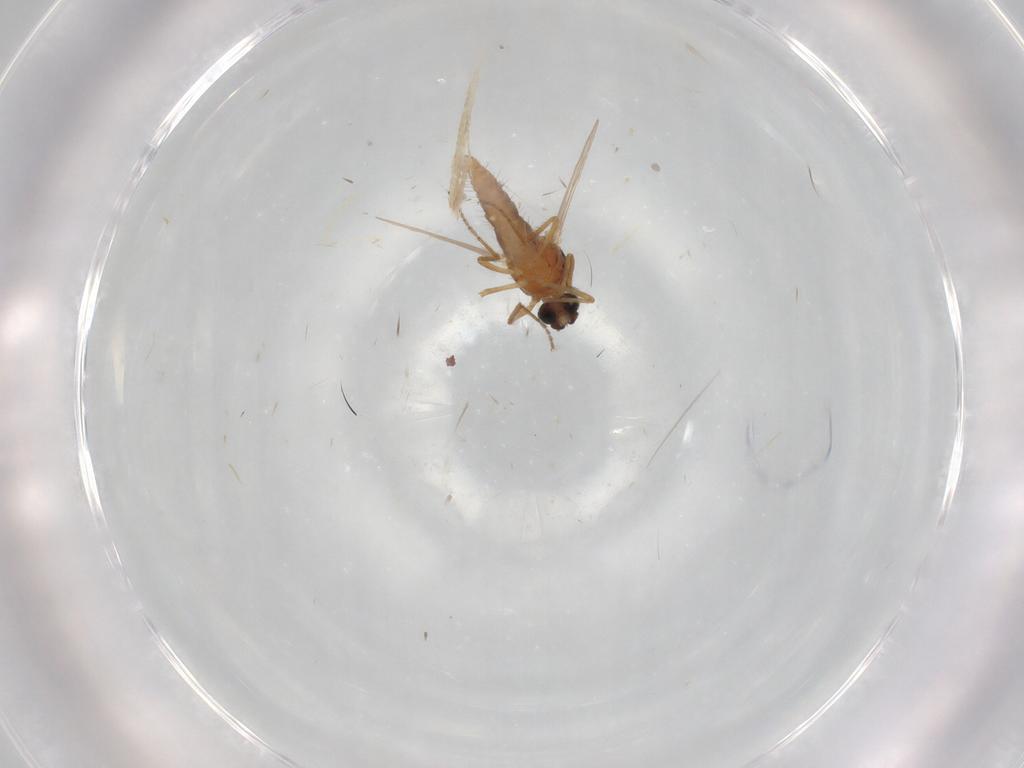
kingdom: Animalia
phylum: Arthropoda
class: Insecta
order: Diptera
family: Cecidomyiidae
